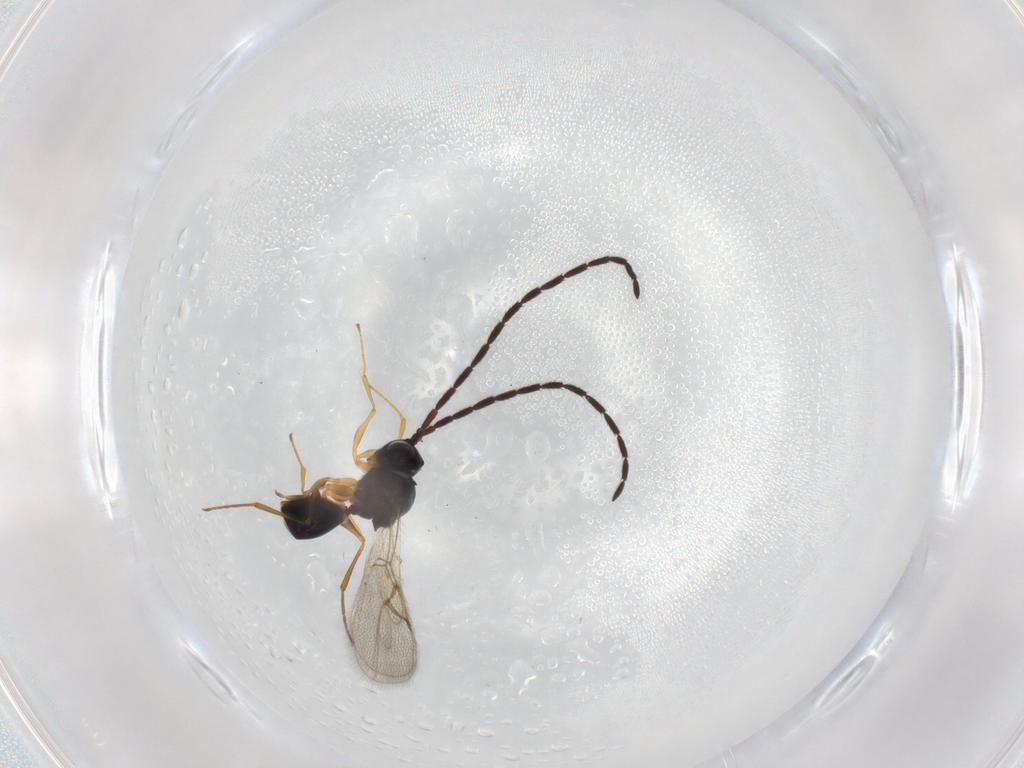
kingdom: Animalia
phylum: Arthropoda
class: Insecta
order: Hymenoptera
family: Figitidae
